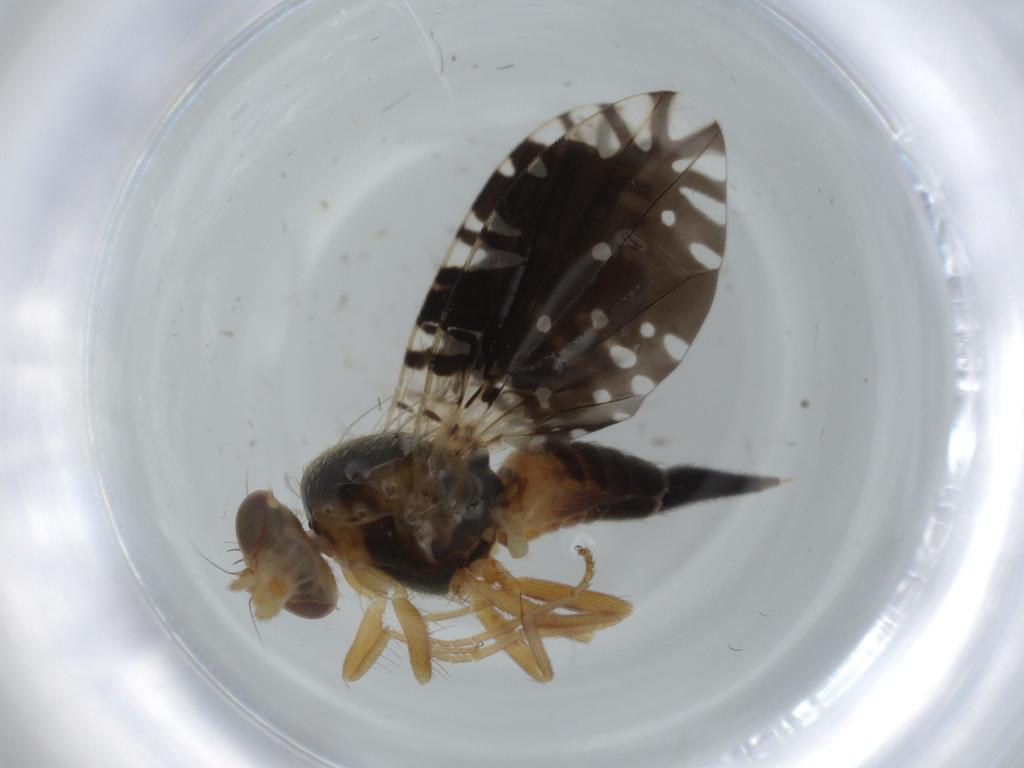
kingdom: Animalia
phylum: Arthropoda
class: Insecta
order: Diptera
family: Tephritidae
